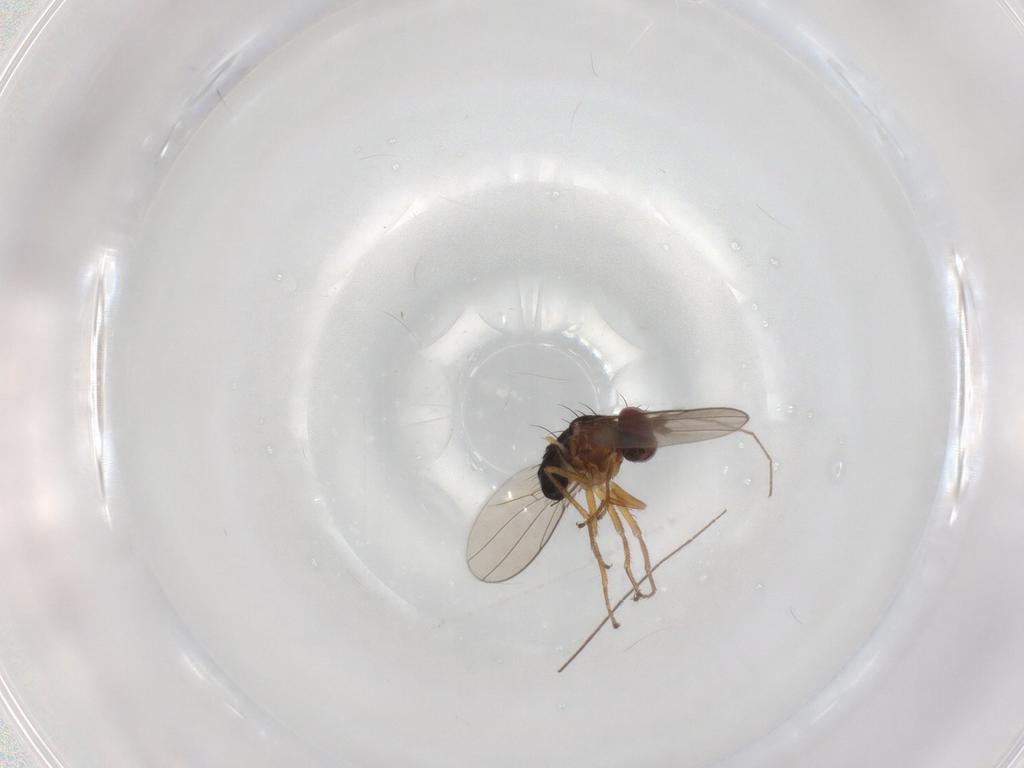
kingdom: Animalia
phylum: Arthropoda
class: Insecta
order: Diptera
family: Ephydridae
